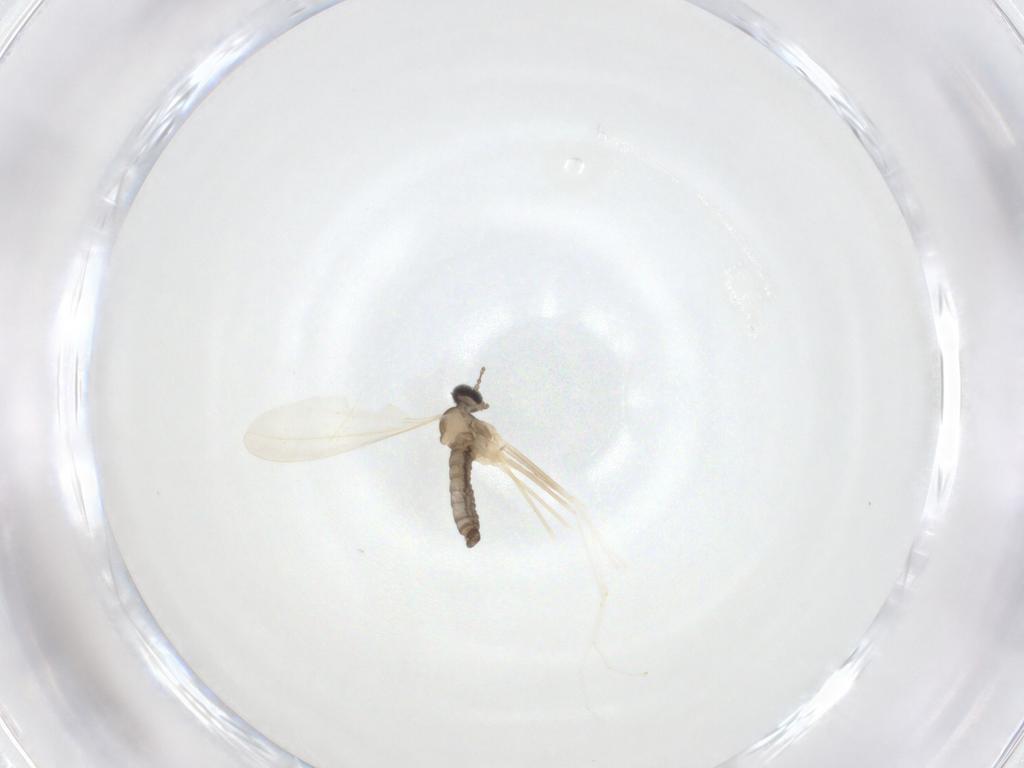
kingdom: Animalia
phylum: Arthropoda
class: Insecta
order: Diptera
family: Cecidomyiidae
